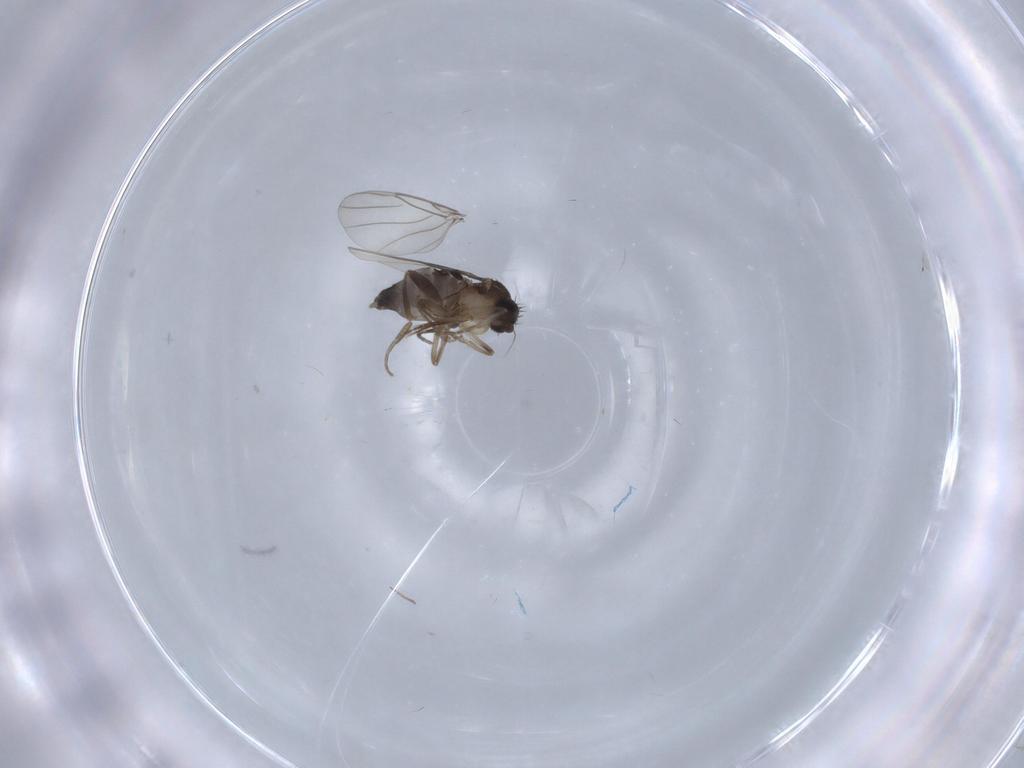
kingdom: Animalia
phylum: Arthropoda
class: Insecta
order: Diptera
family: Phoridae
